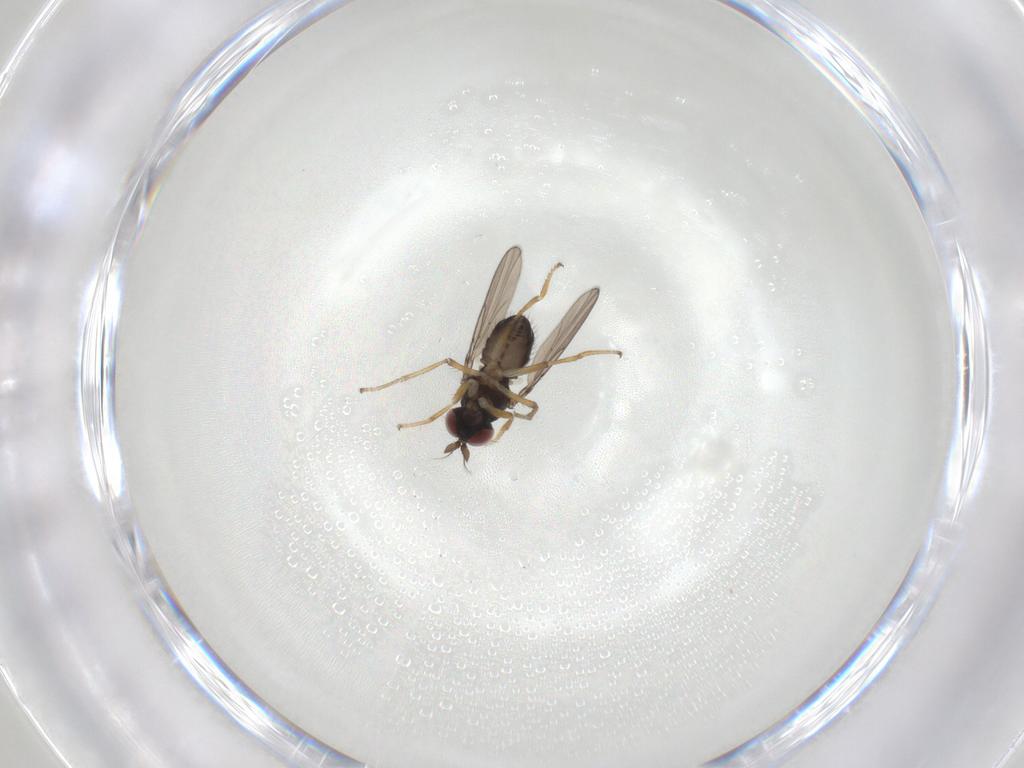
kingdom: Animalia
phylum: Arthropoda
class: Insecta
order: Diptera
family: Ephydridae
